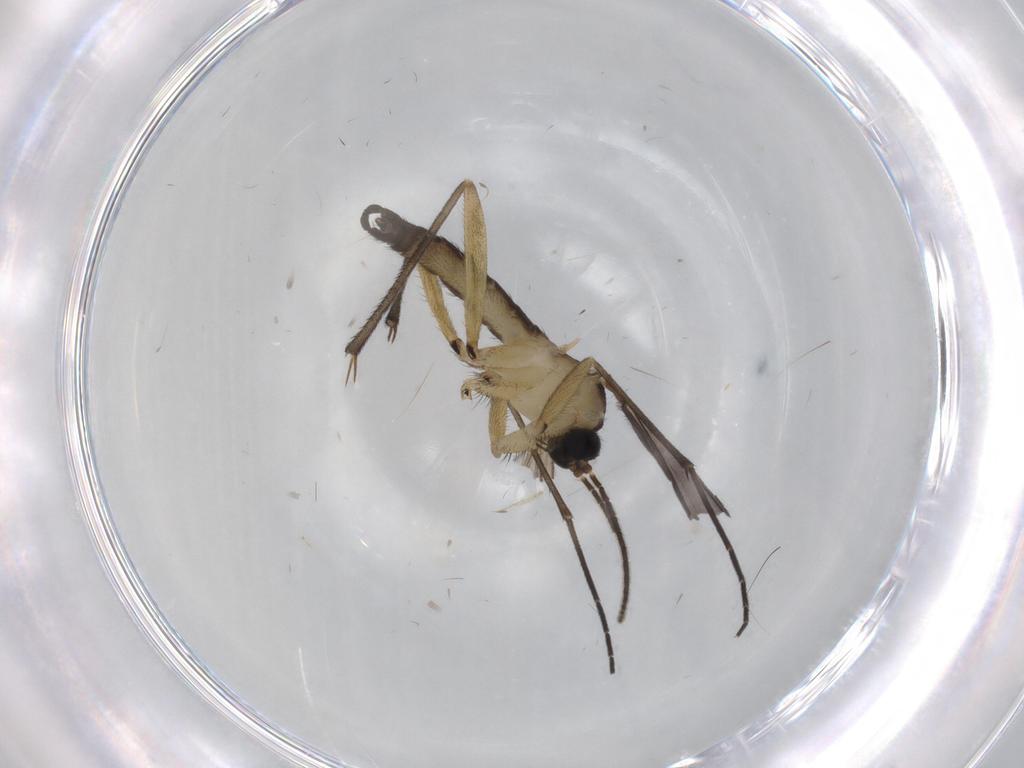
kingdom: Animalia
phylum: Arthropoda
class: Insecta
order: Diptera
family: Sciaridae
